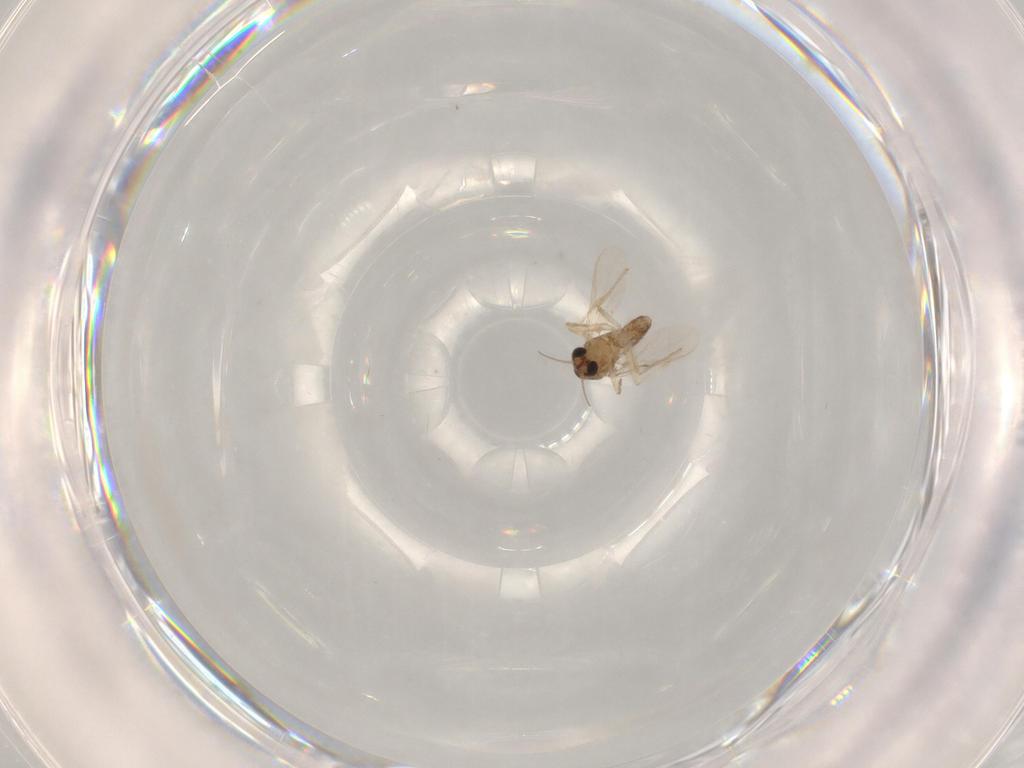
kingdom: Animalia
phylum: Arthropoda
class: Insecta
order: Diptera
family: Chironomidae
